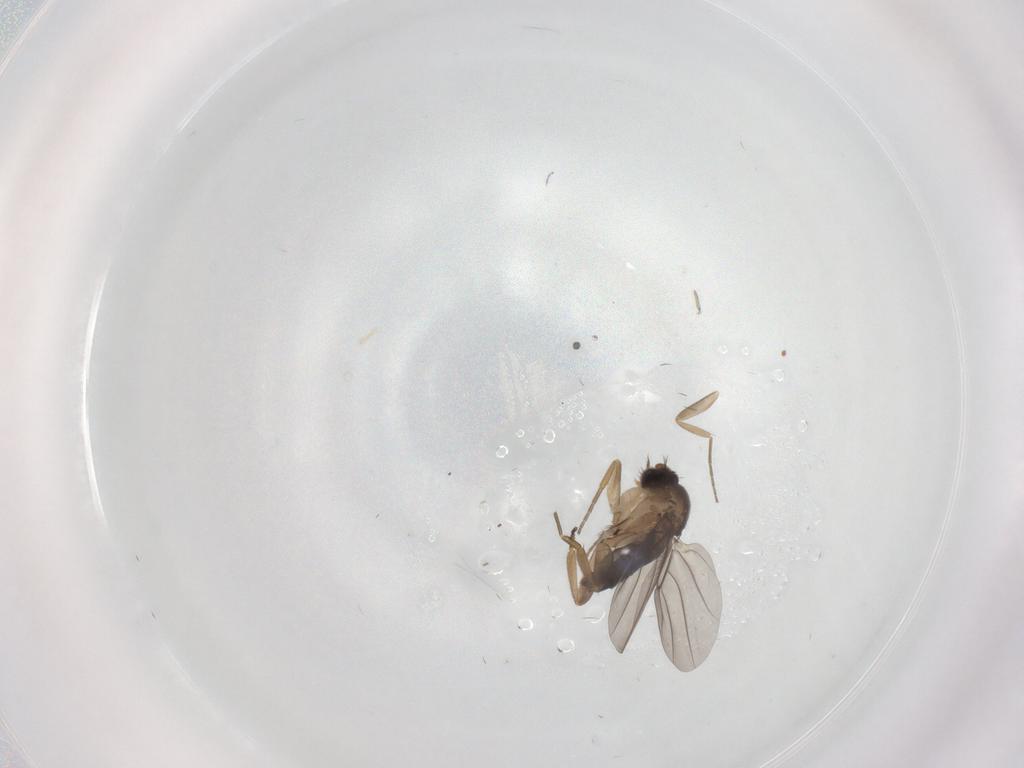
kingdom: Animalia
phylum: Arthropoda
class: Insecta
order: Diptera
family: Phoridae
